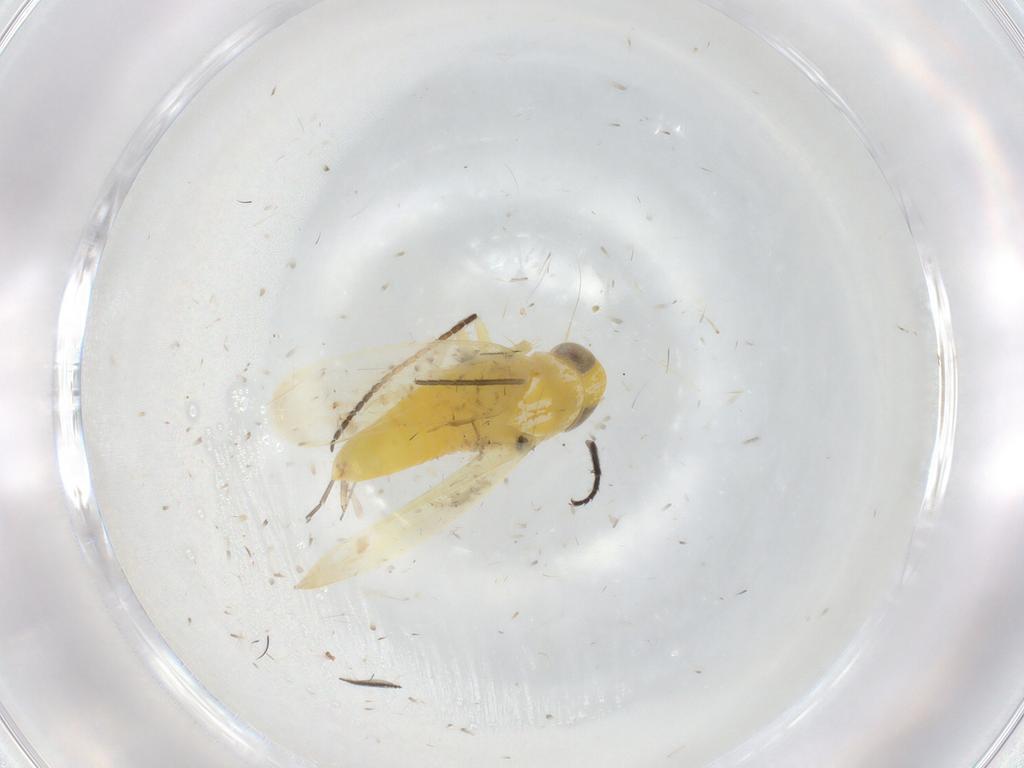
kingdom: Animalia
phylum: Arthropoda
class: Insecta
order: Hemiptera
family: Cicadellidae
